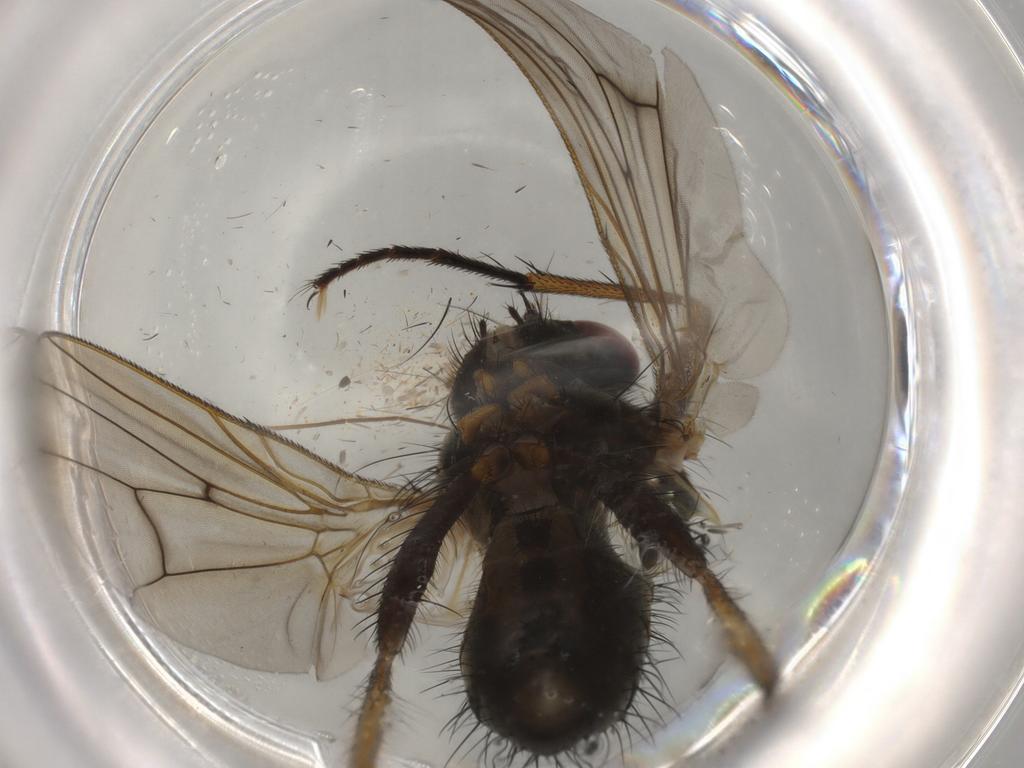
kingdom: Animalia
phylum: Arthropoda
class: Insecta
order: Diptera
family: Muscidae
